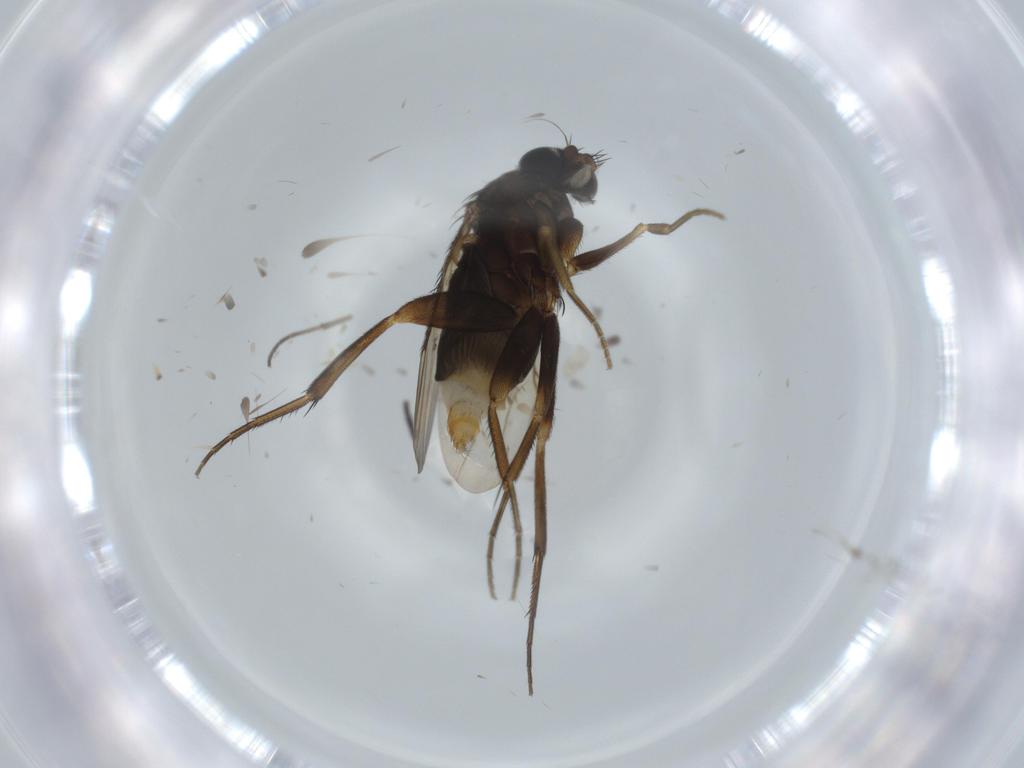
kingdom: Animalia
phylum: Arthropoda
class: Insecta
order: Diptera
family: Phoridae
